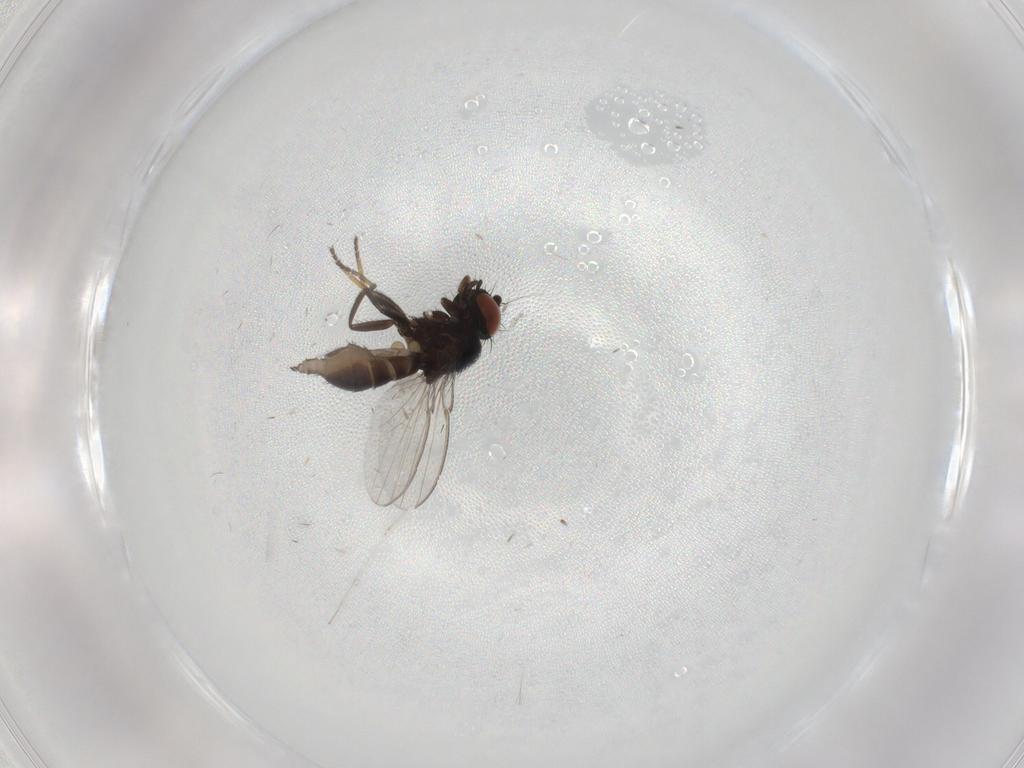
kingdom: Animalia
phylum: Arthropoda
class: Insecta
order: Diptera
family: Milichiidae
